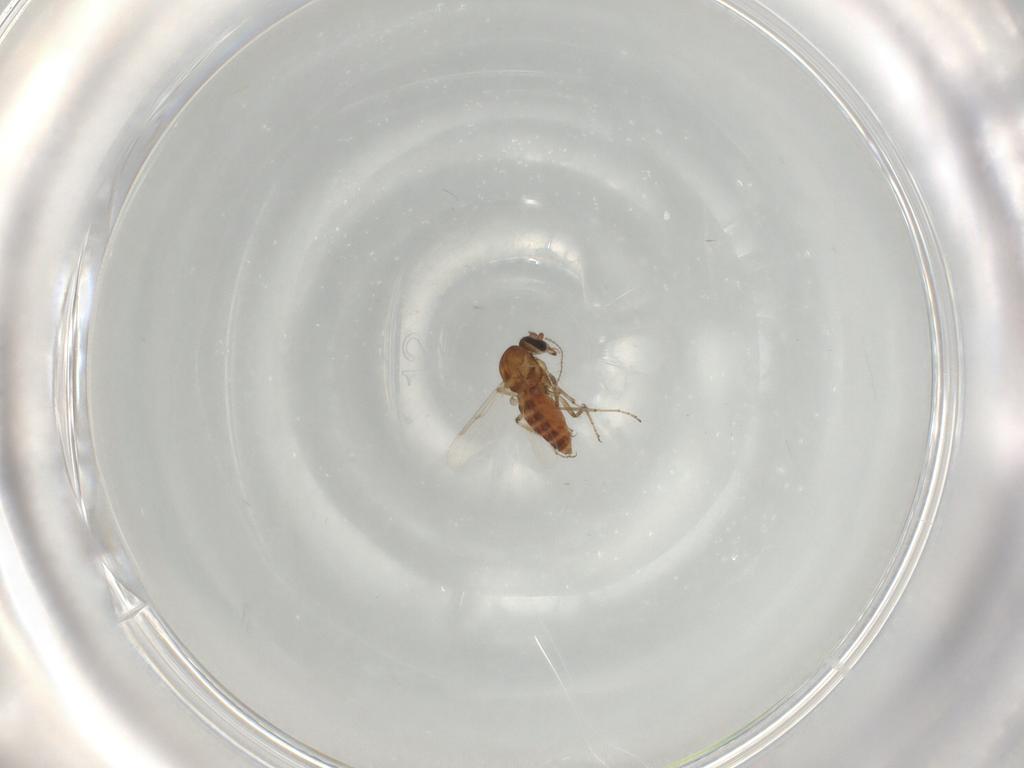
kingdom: Animalia
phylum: Arthropoda
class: Insecta
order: Diptera
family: Ceratopogonidae
